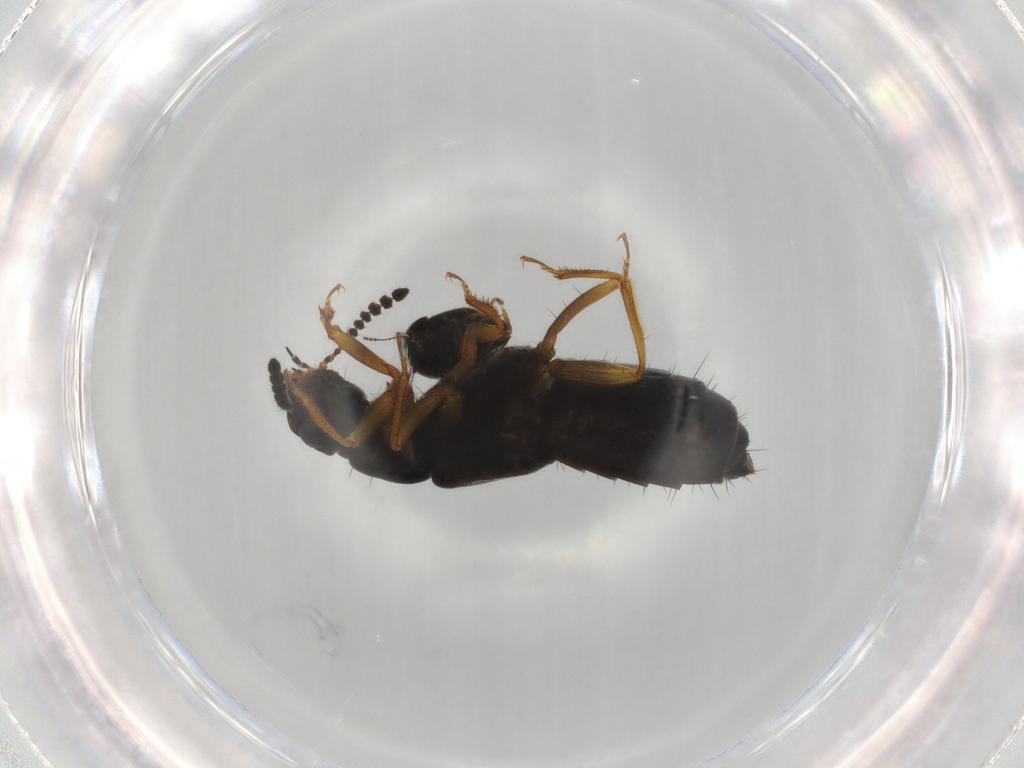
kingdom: Animalia
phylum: Arthropoda
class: Insecta
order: Coleoptera
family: Staphylinidae
